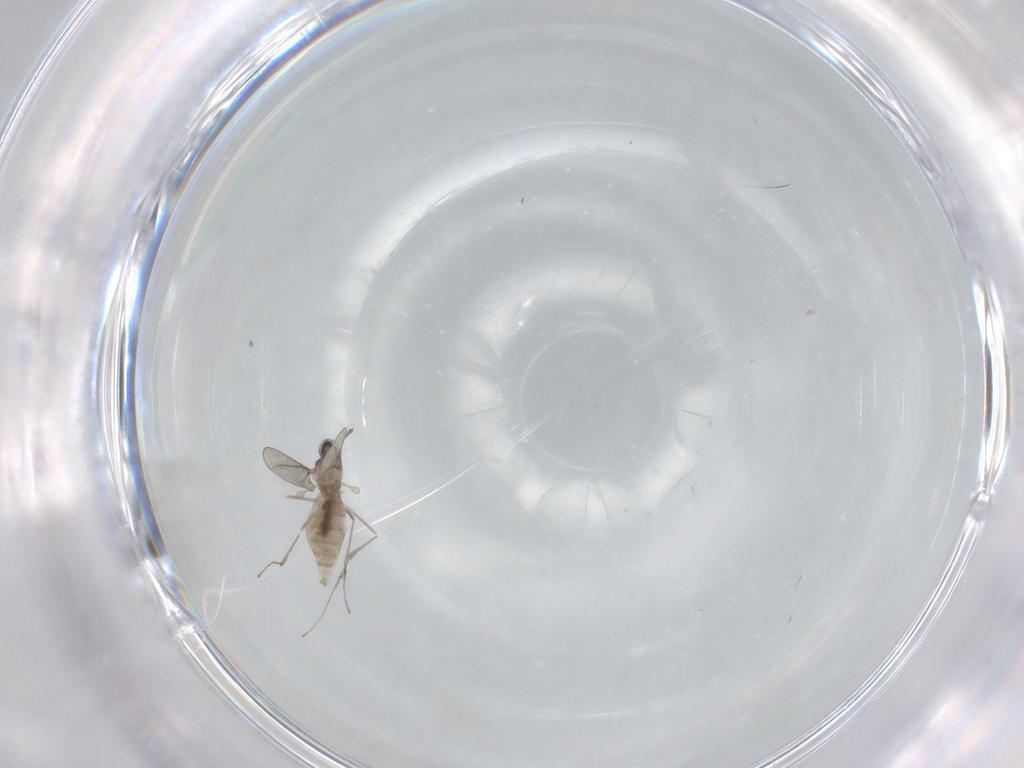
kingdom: Animalia
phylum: Arthropoda
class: Insecta
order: Diptera
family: Cecidomyiidae
